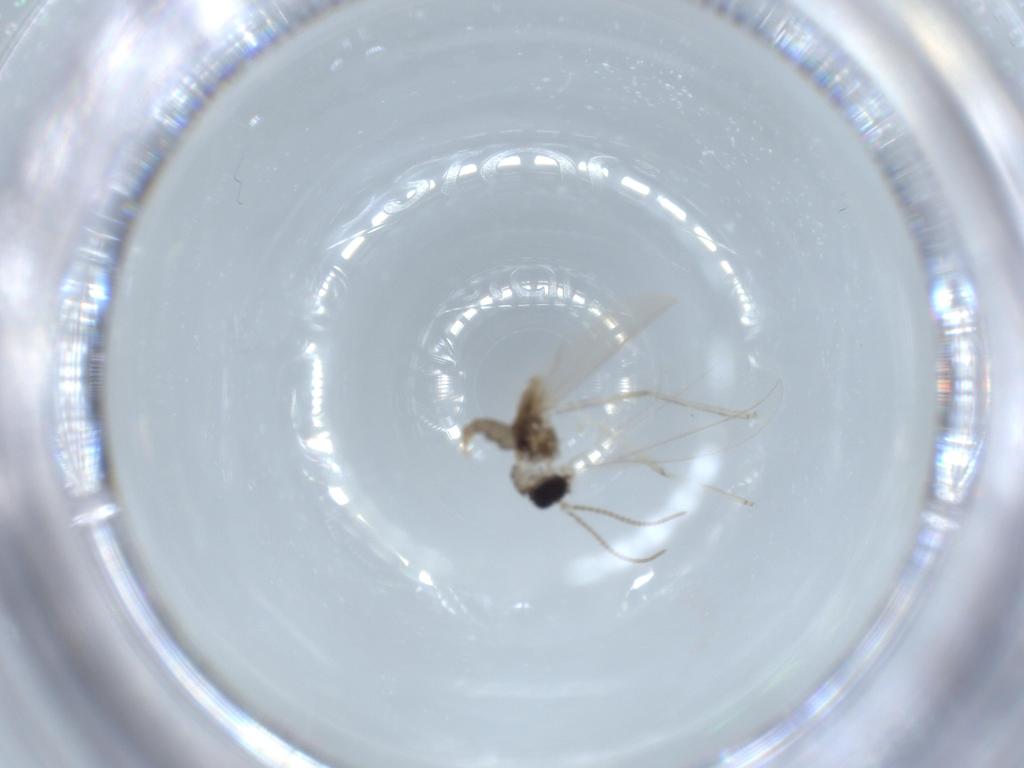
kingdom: Animalia
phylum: Arthropoda
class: Insecta
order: Diptera
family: Cecidomyiidae
